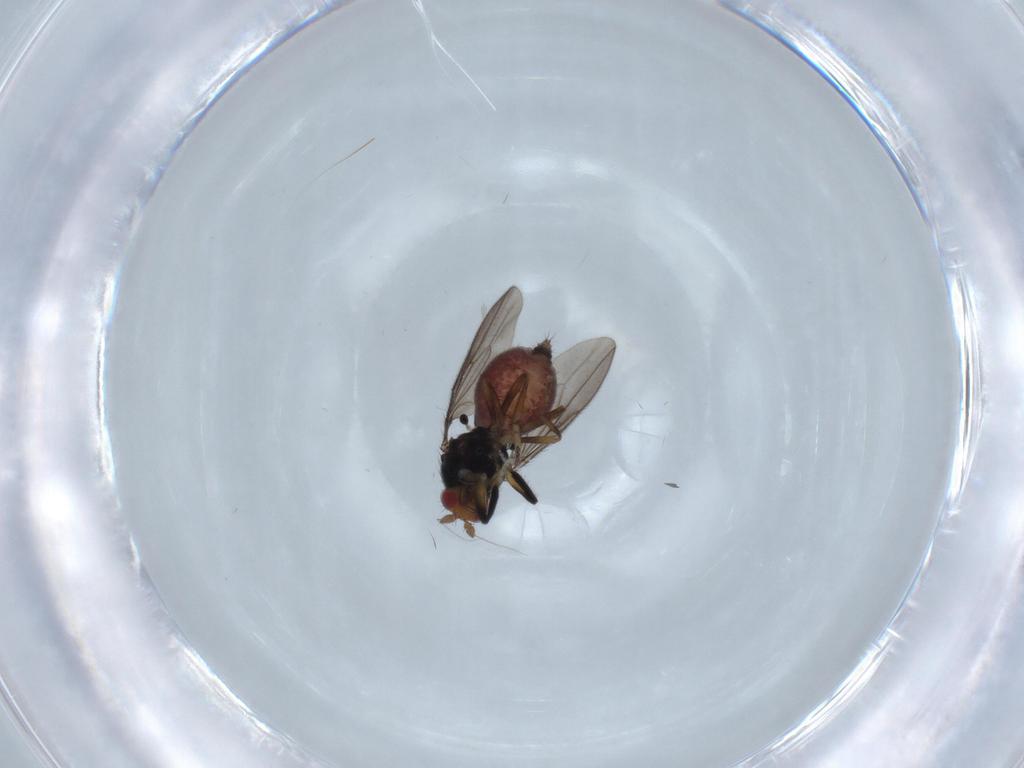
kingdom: Animalia
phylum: Arthropoda
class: Insecta
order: Diptera
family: Sphaeroceridae
